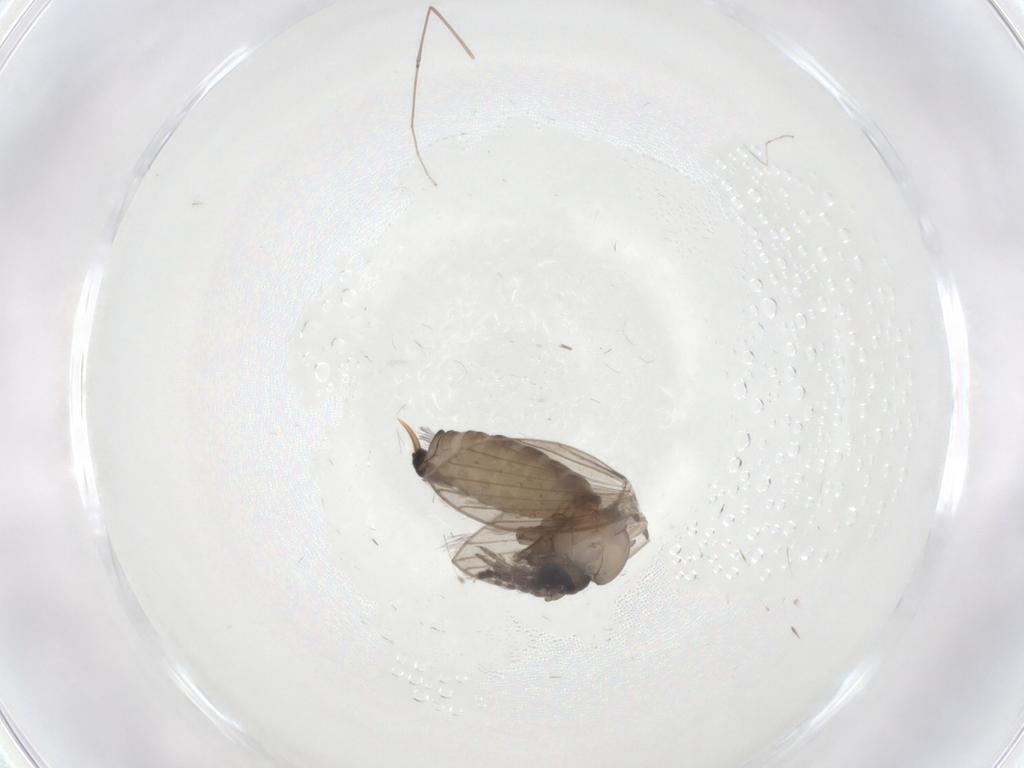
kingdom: Animalia
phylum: Arthropoda
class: Insecta
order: Diptera
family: Psychodidae
